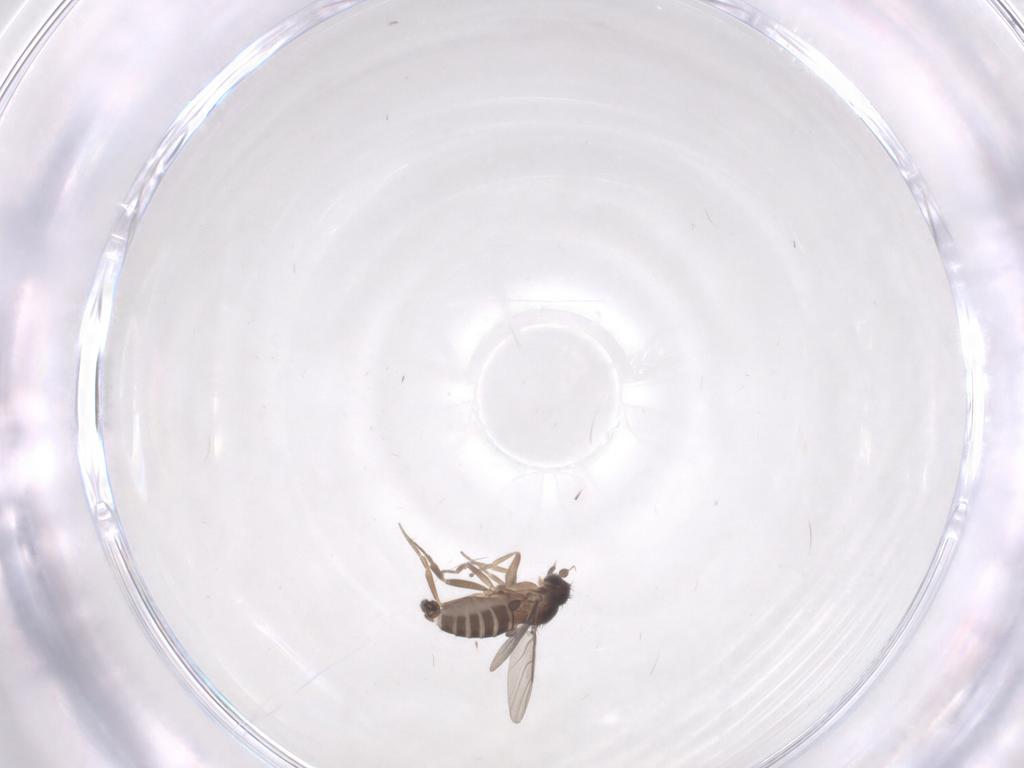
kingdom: Animalia
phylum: Arthropoda
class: Insecta
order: Diptera
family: Phoridae
